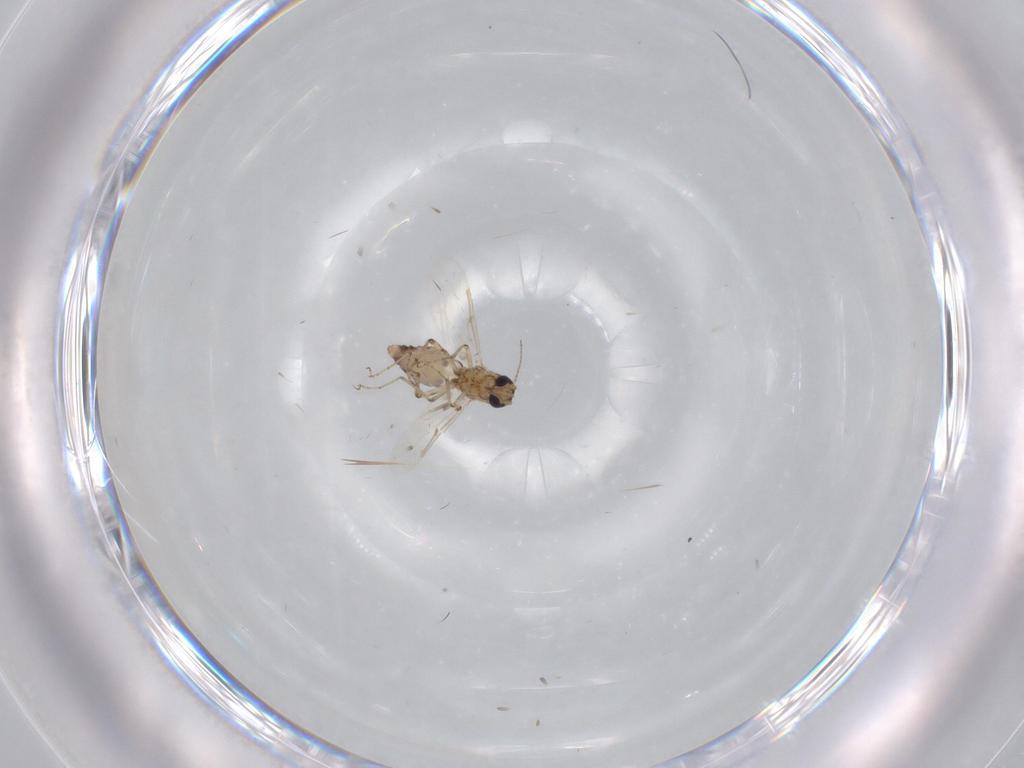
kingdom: Animalia
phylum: Arthropoda
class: Insecta
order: Diptera
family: Ceratopogonidae
